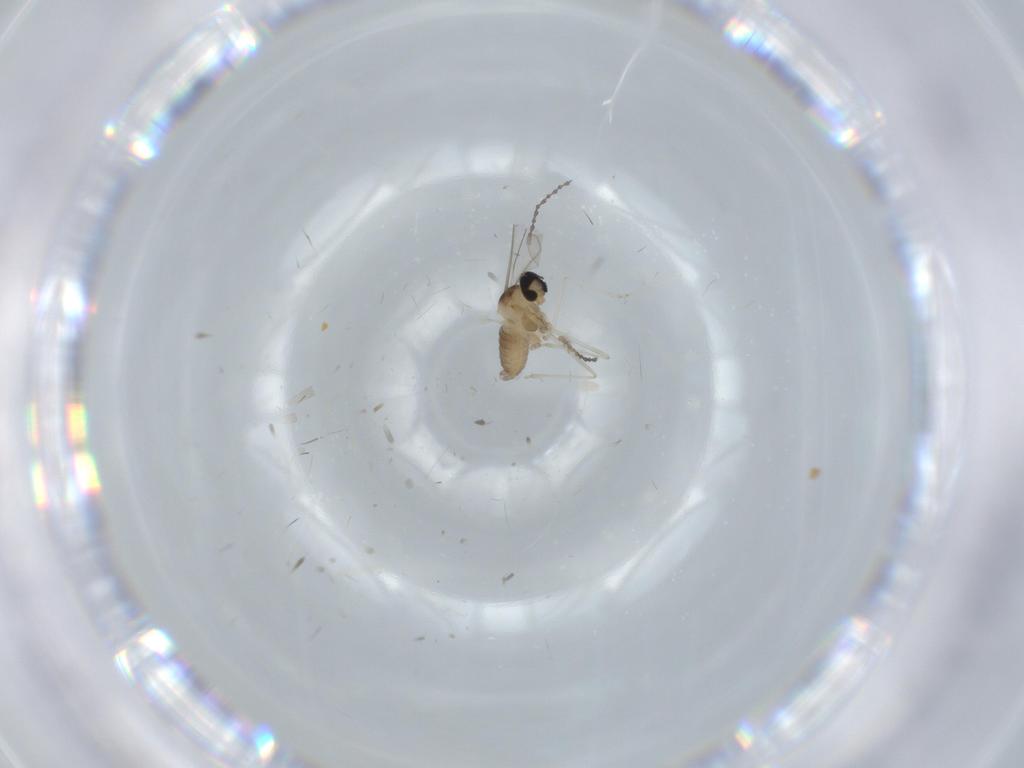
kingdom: Animalia
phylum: Arthropoda
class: Insecta
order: Diptera
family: Cecidomyiidae
